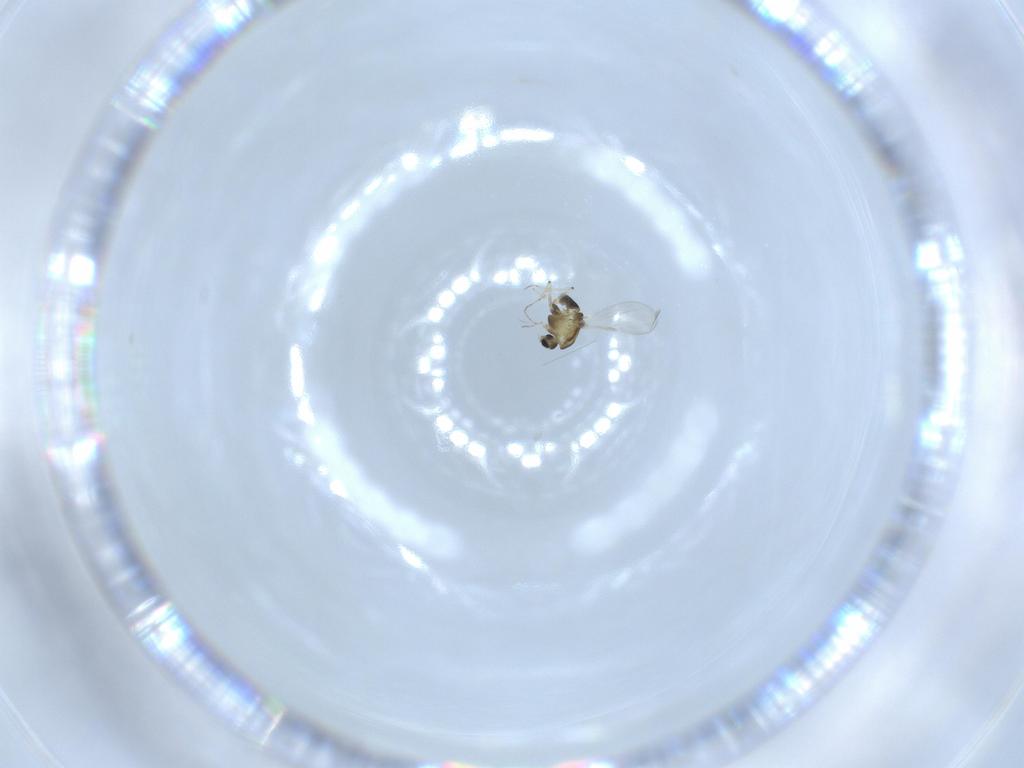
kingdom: Animalia
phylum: Arthropoda
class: Insecta
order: Diptera
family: Chironomidae
